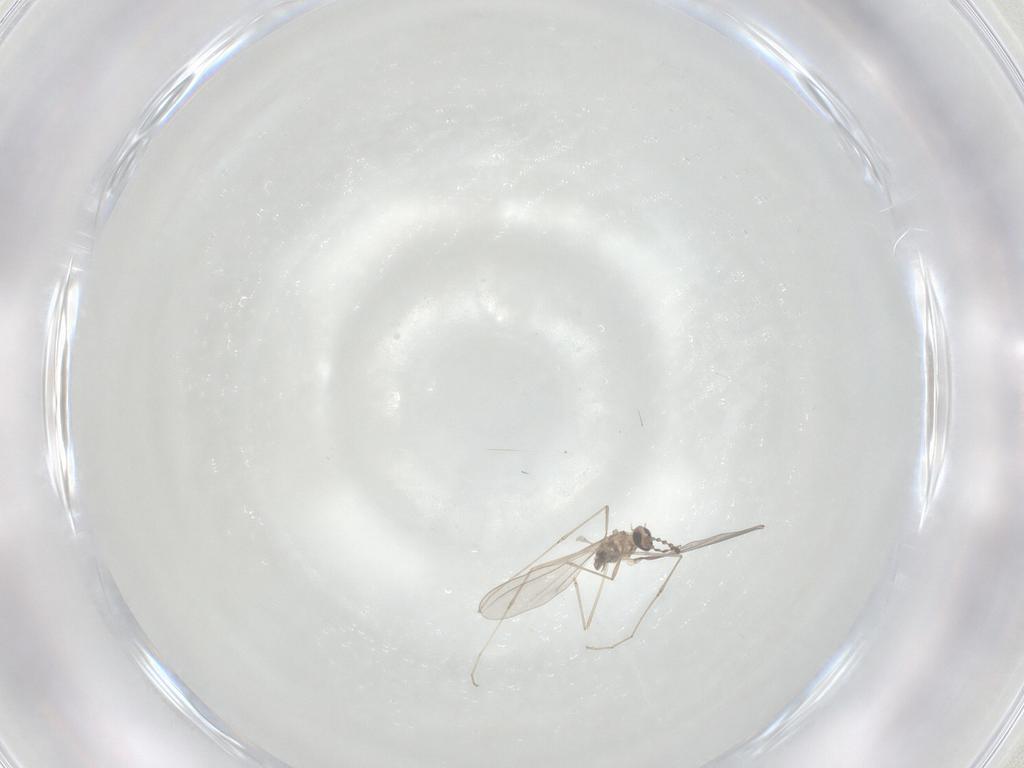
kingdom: Animalia
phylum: Arthropoda
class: Insecta
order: Diptera
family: Cecidomyiidae
